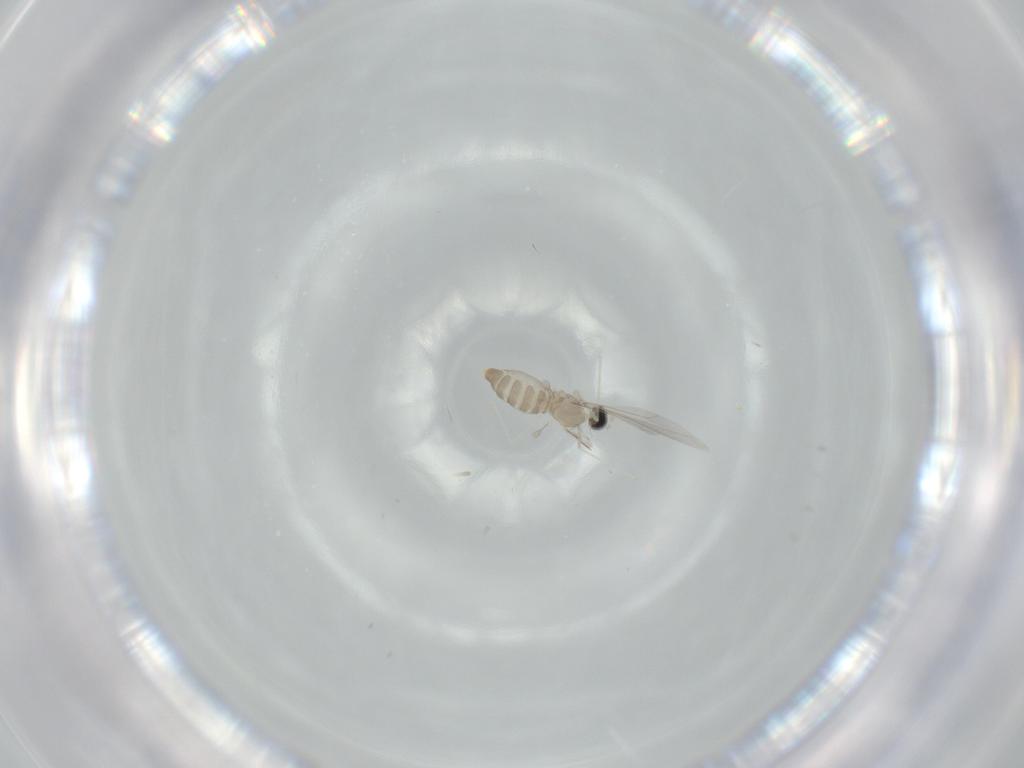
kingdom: Animalia
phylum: Arthropoda
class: Insecta
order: Diptera
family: Cecidomyiidae
